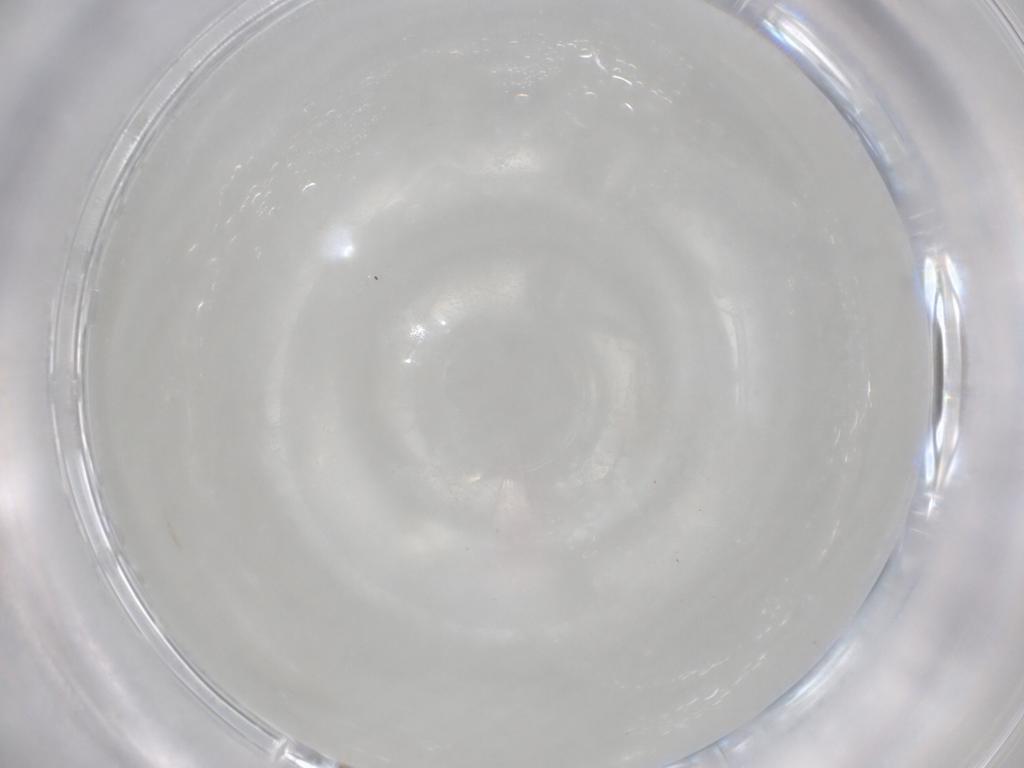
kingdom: Animalia
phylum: Arthropoda
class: Insecta
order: Diptera
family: Sciaridae
